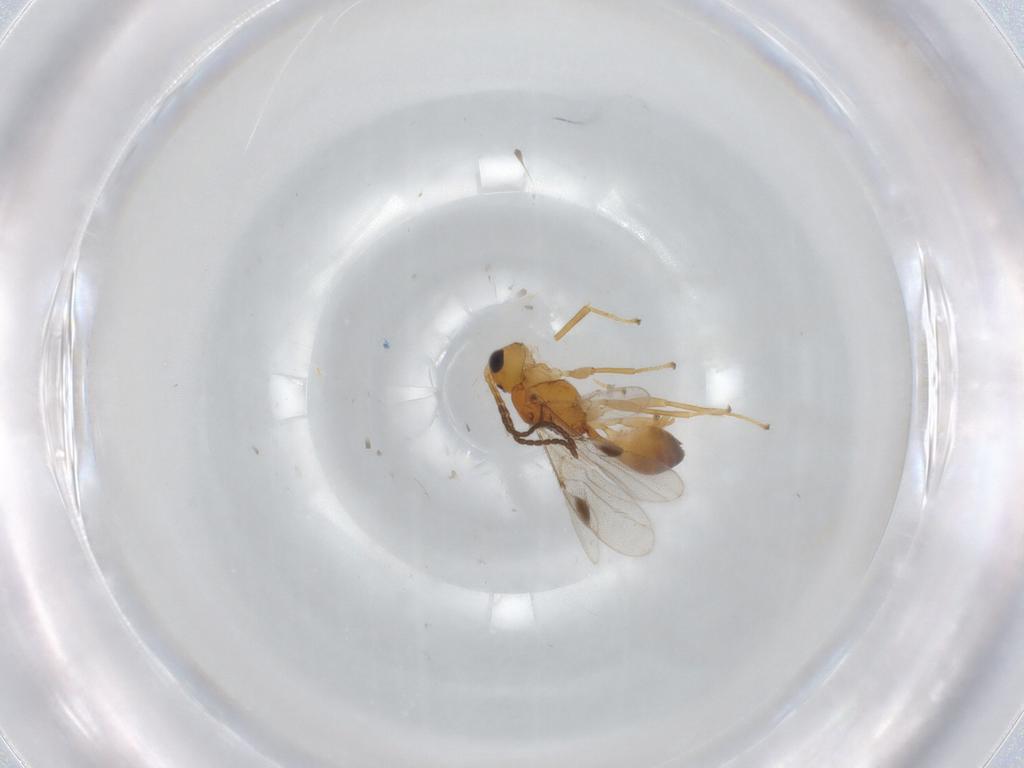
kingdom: Animalia
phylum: Arthropoda
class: Insecta
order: Hymenoptera
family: Braconidae
